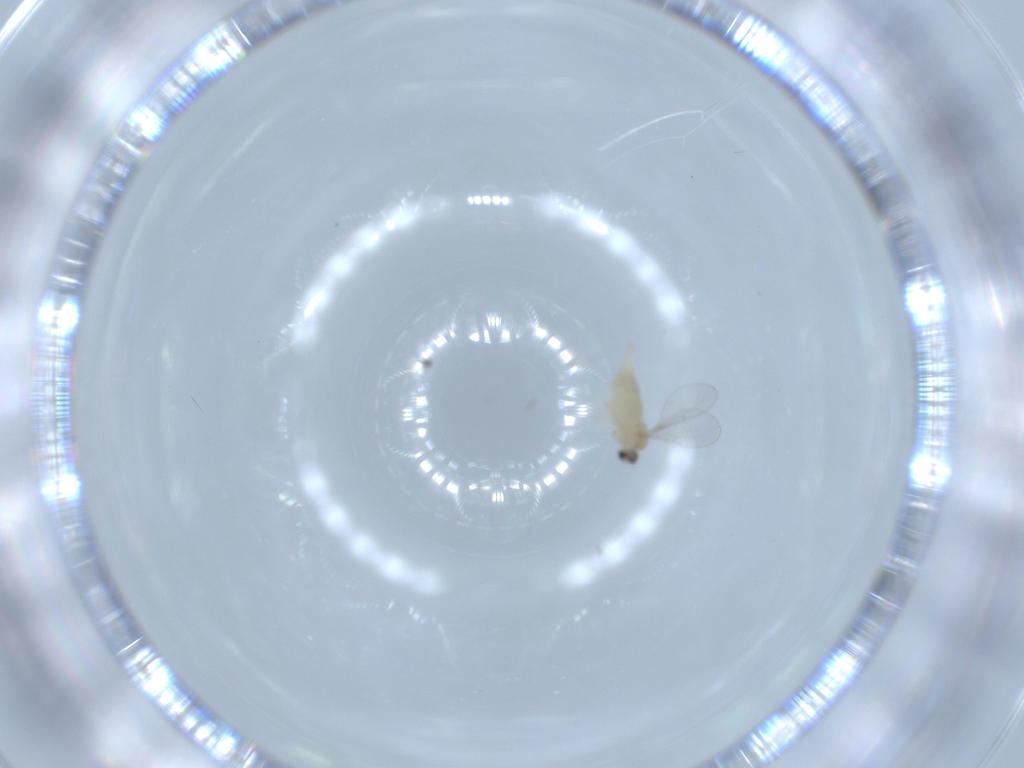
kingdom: Animalia
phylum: Arthropoda
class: Insecta
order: Diptera
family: Cecidomyiidae
